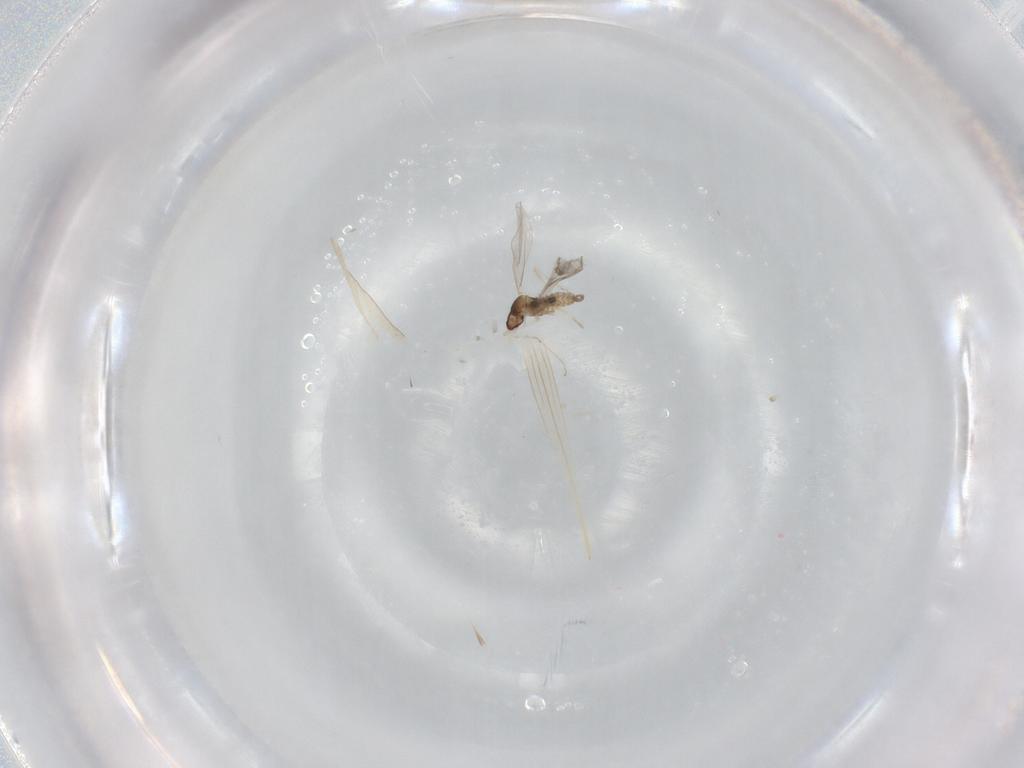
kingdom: Animalia
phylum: Arthropoda
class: Insecta
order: Diptera
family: Cecidomyiidae
